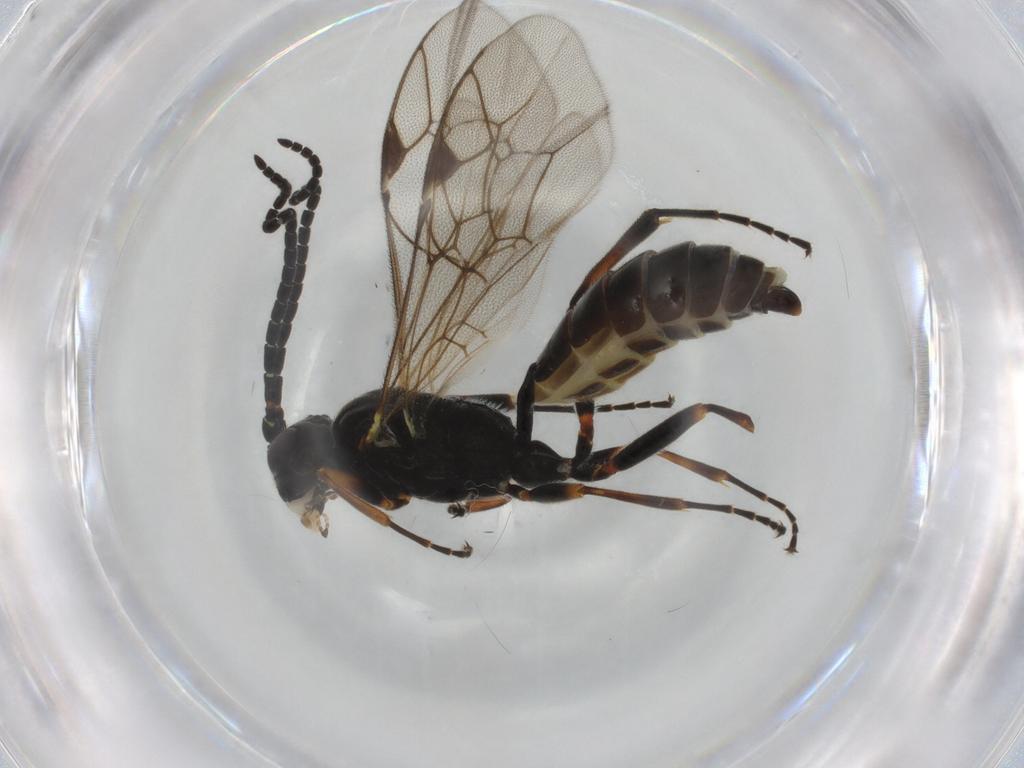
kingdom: Animalia
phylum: Arthropoda
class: Insecta
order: Hymenoptera
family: Ichneumonidae
